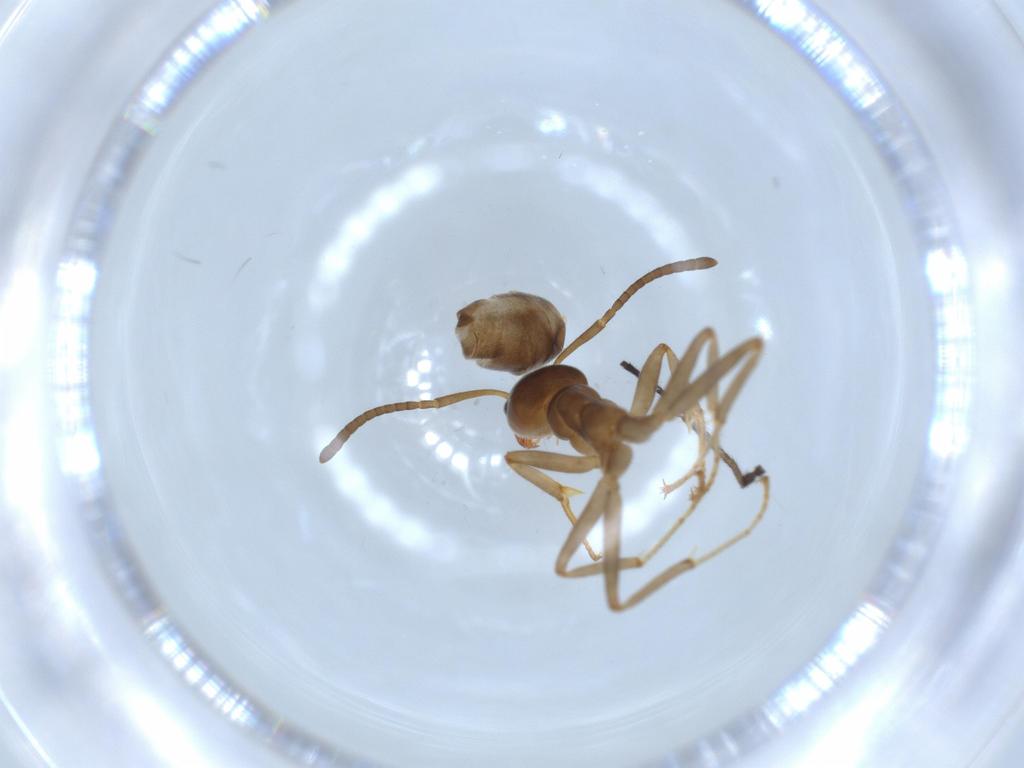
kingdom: Animalia
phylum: Arthropoda
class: Insecta
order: Hymenoptera
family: Formicidae
